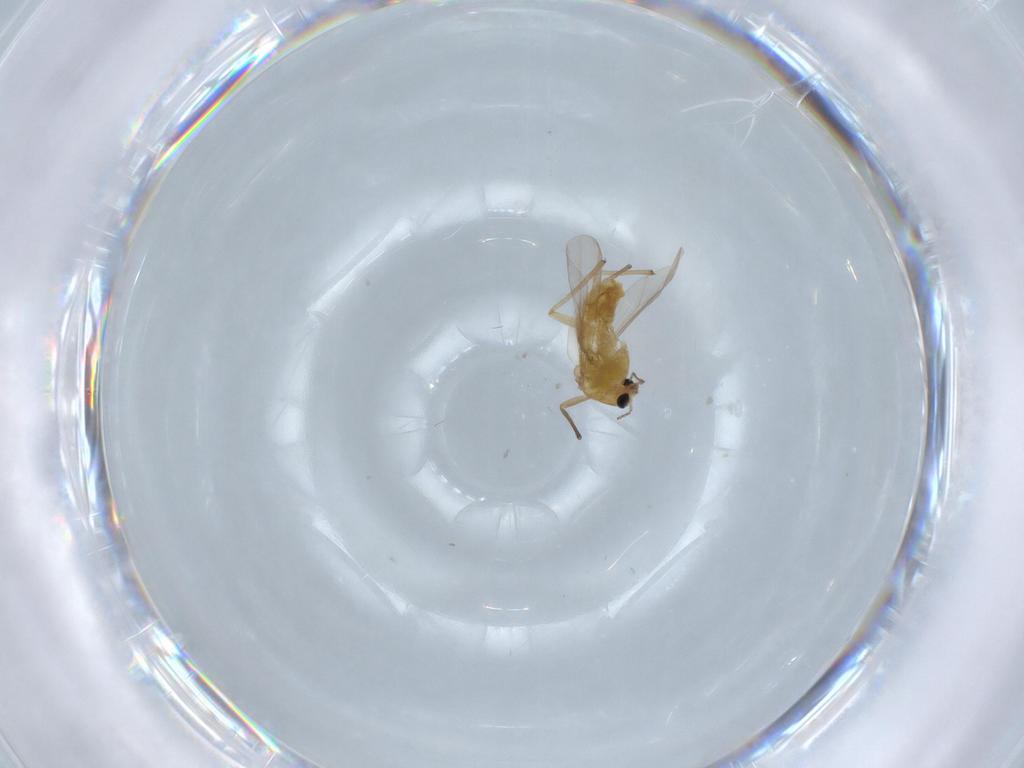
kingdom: Animalia
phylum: Arthropoda
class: Insecta
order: Diptera
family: Chironomidae
